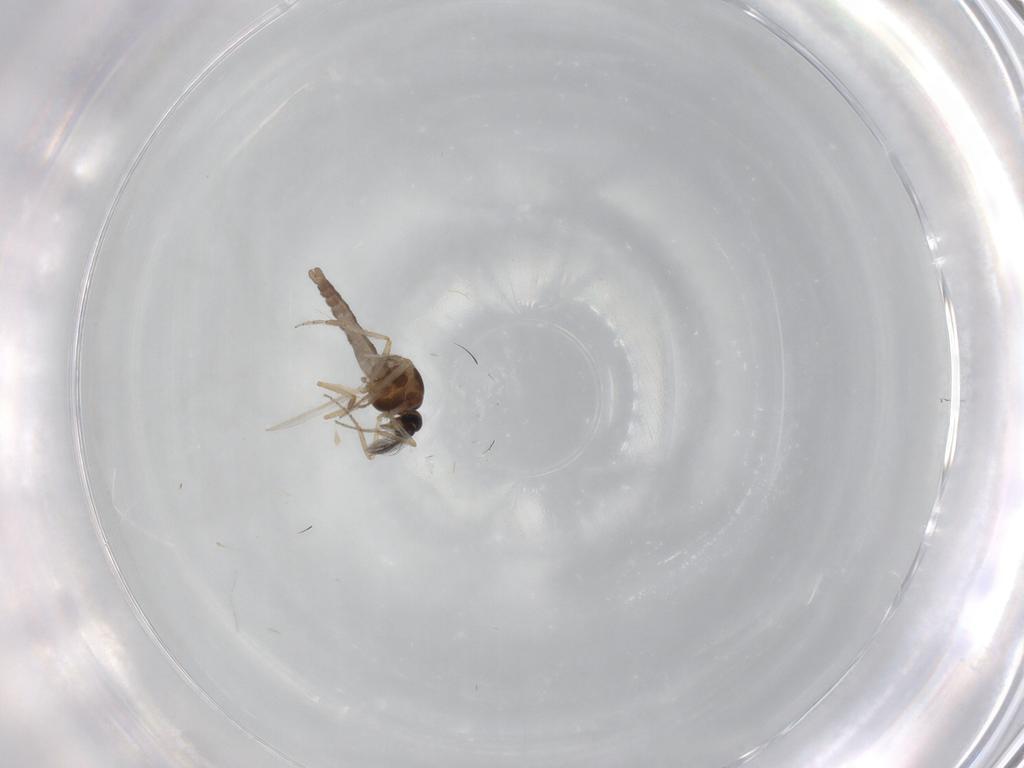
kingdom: Animalia
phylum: Arthropoda
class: Insecta
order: Diptera
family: Ceratopogonidae
